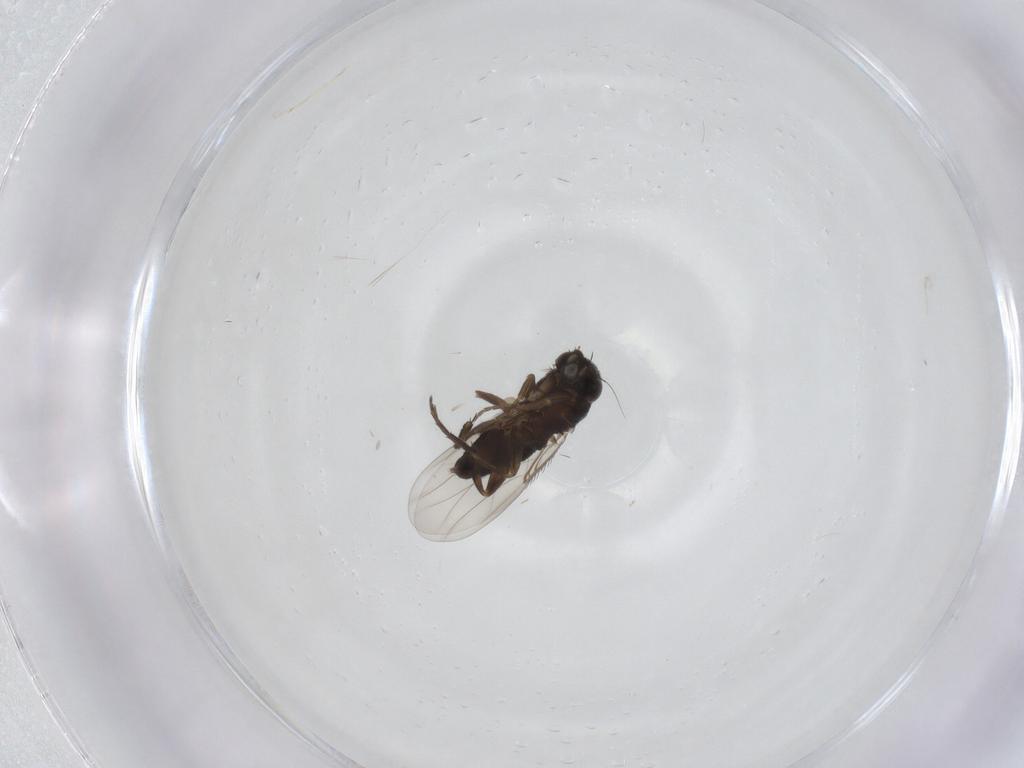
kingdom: Animalia
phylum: Arthropoda
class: Insecta
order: Diptera
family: Phoridae
